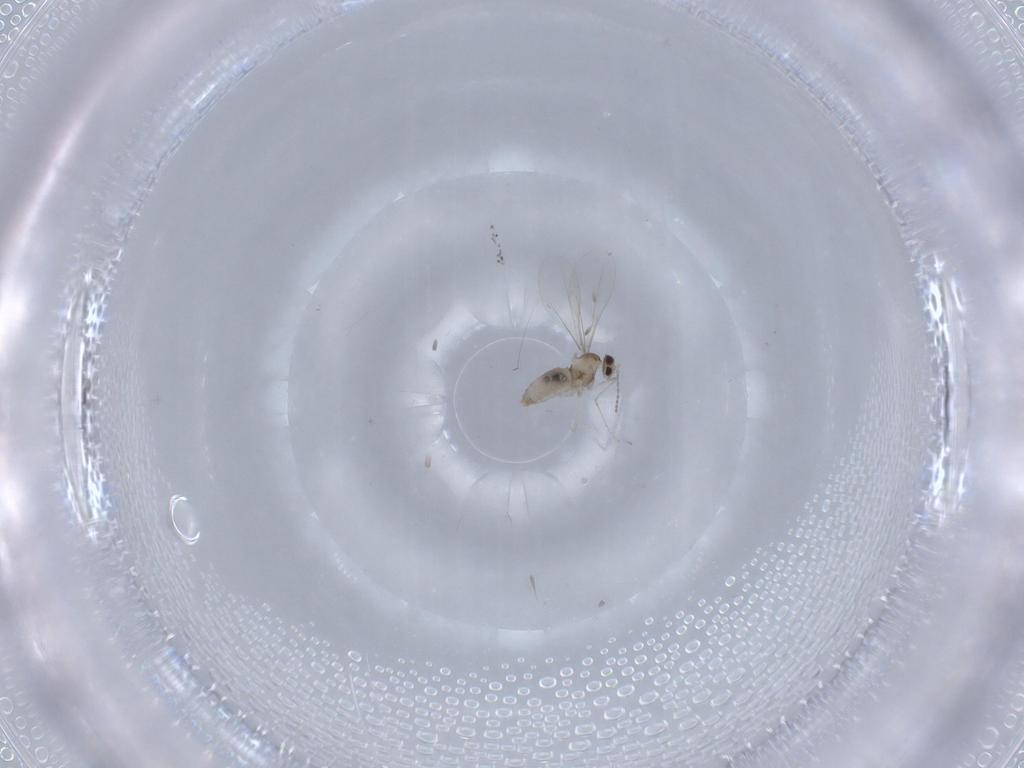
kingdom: Animalia
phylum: Arthropoda
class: Insecta
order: Diptera
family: Cecidomyiidae
